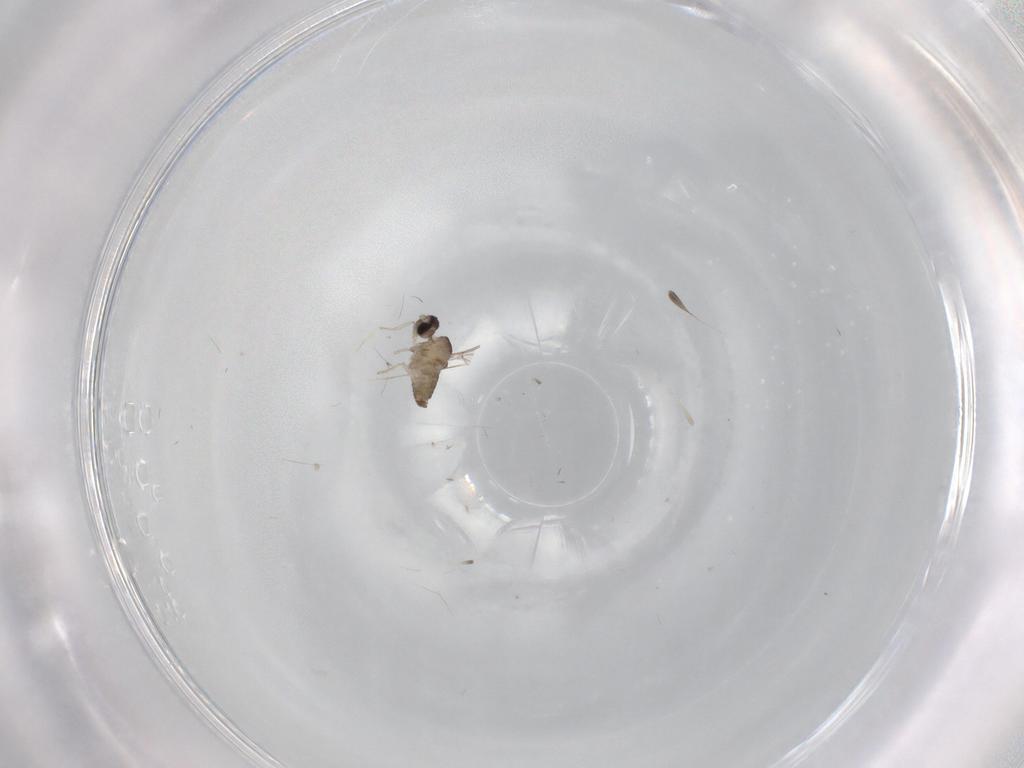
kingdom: Animalia
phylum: Arthropoda
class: Insecta
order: Diptera
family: Cecidomyiidae
